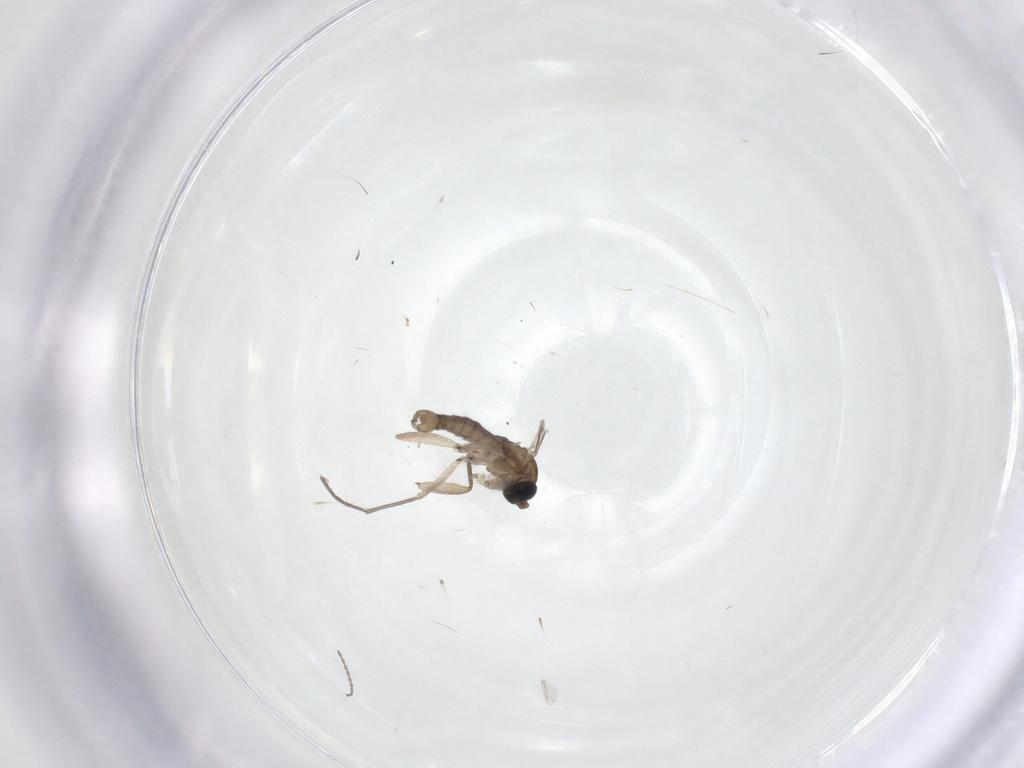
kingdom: Animalia
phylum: Arthropoda
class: Insecta
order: Diptera
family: Sciaridae
